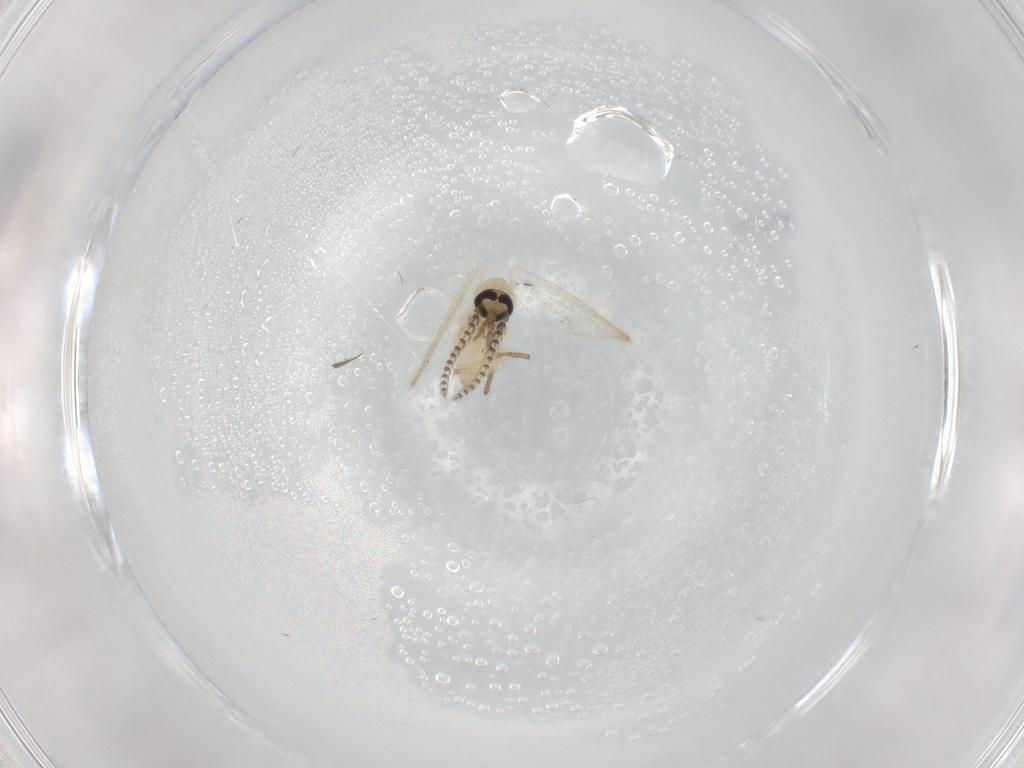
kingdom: Animalia
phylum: Arthropoda
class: Insecta
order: Diptera
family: Psychodidae
